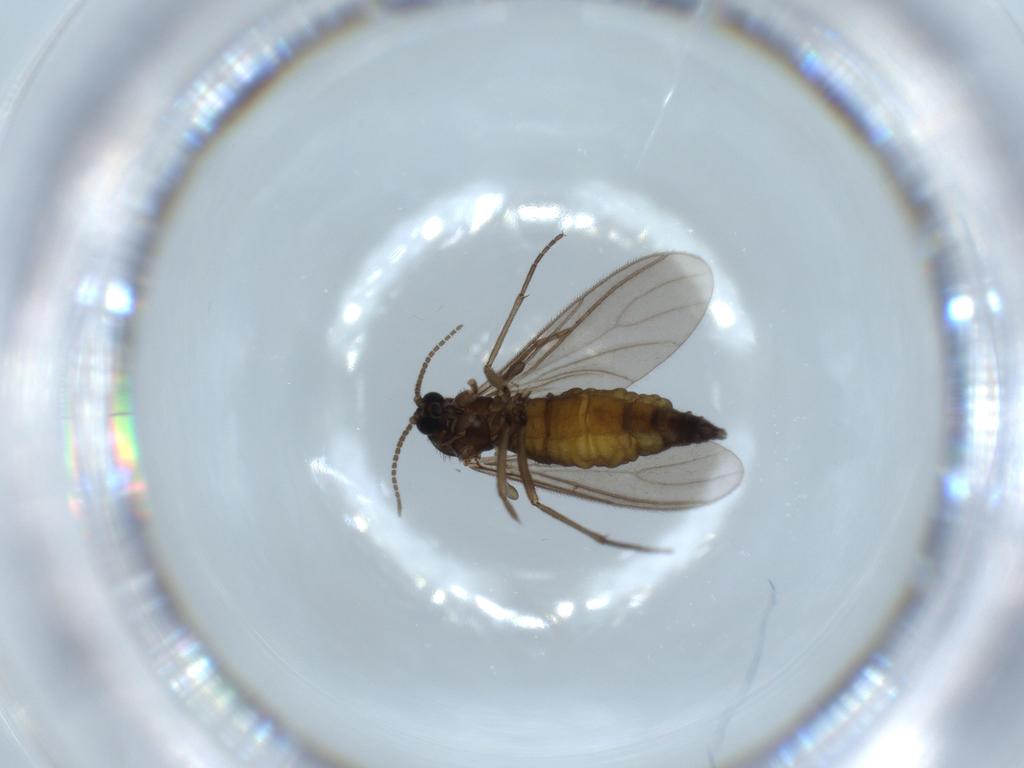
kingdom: Animalia
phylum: Arthropoda
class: Insecta
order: Diptera
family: Sciaridae
